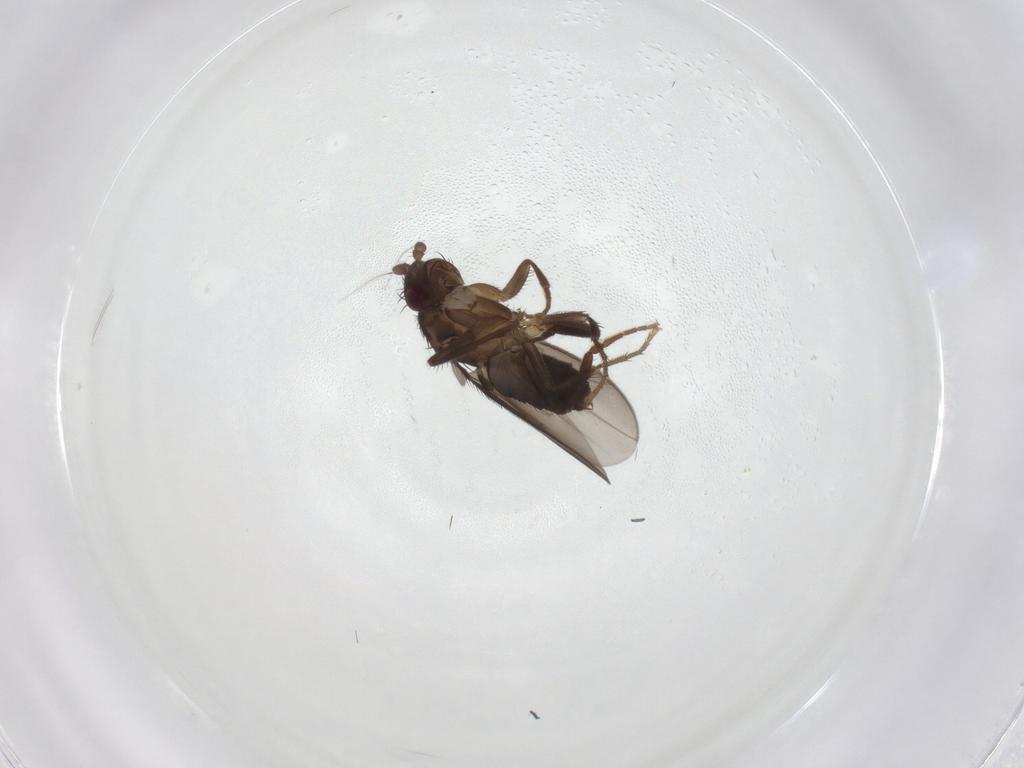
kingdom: Animalia
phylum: Arthropoda
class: Insecta
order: Diptera
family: Sphaeroceridae
